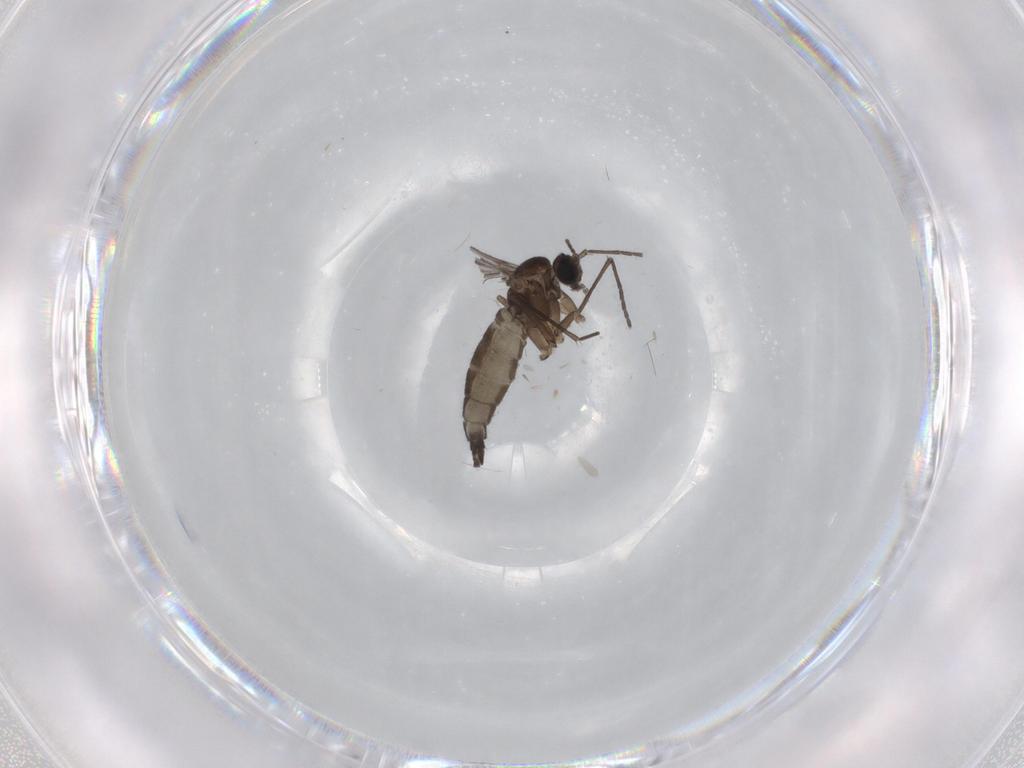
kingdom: Animalia
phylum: Arthropoda
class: Insecta
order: Diptera
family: Sciaridae
